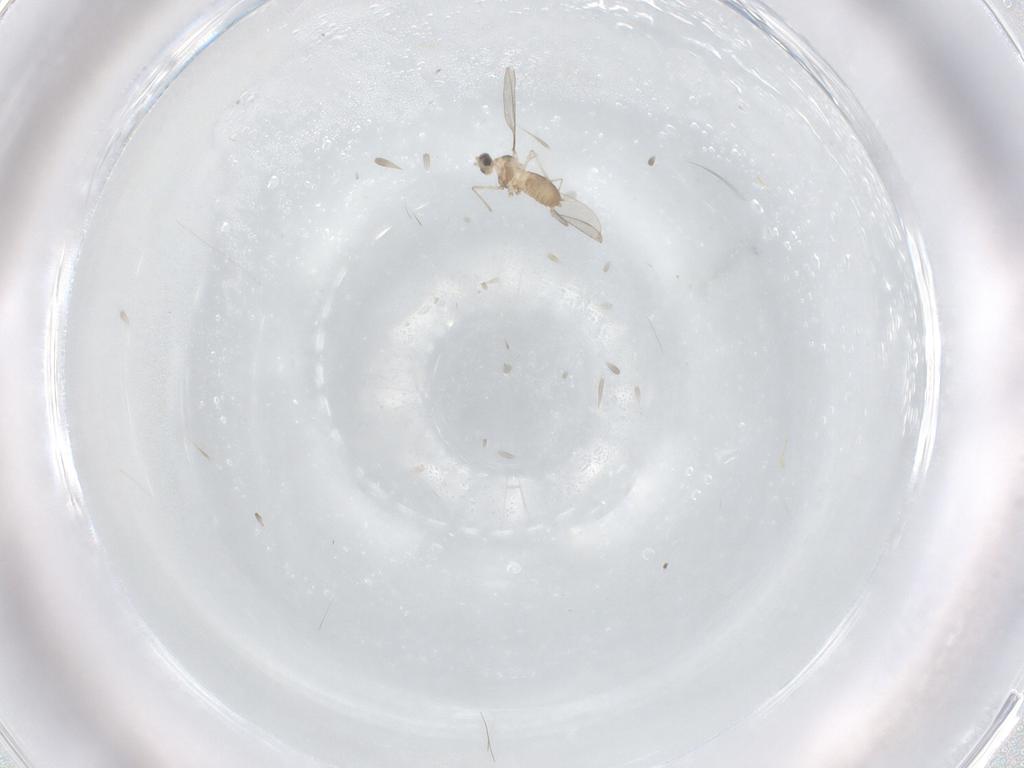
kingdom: Animalia
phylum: Arthropoda
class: Insecta
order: Diptera
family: Cecidomyiidae
